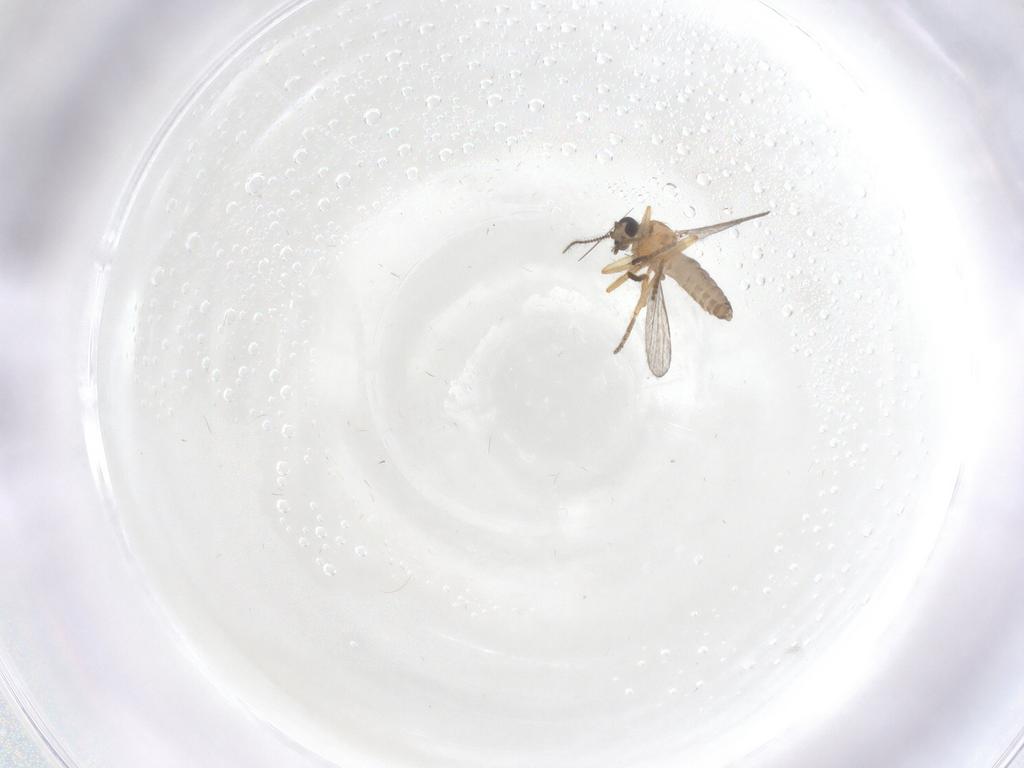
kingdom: Animalia
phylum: Arthropoda
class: Insecta
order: Diptera
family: Ceratopogonidae
